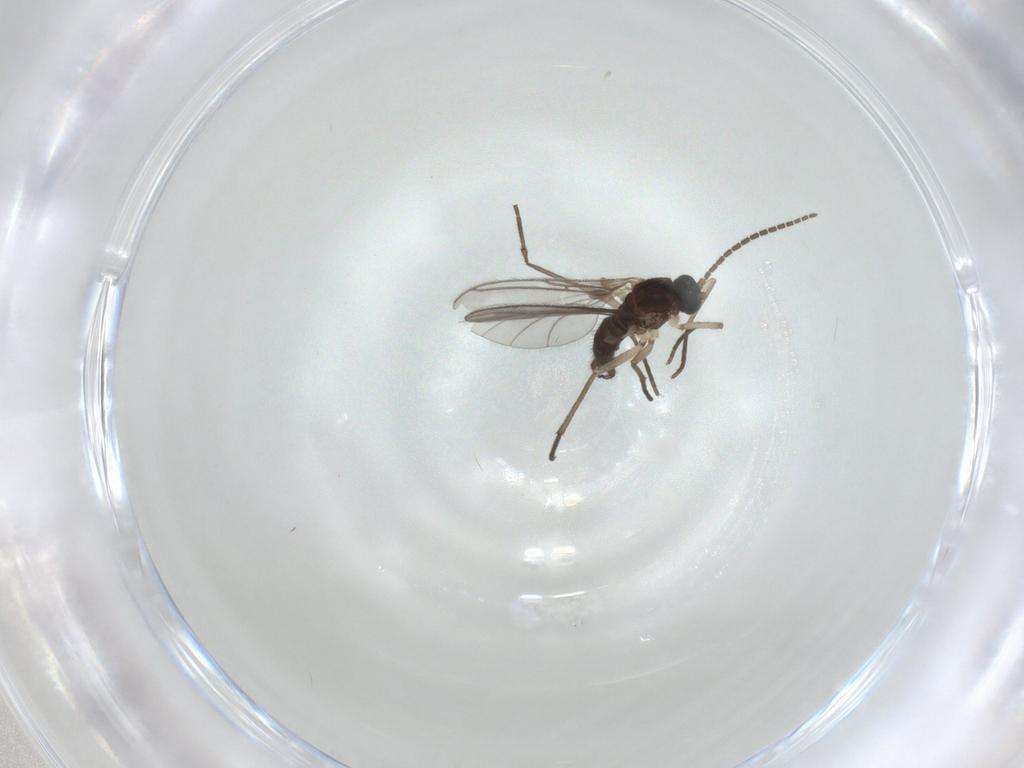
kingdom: Animalia
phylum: Arthropoda
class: Insecta
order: Diptera
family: Sciaridae
